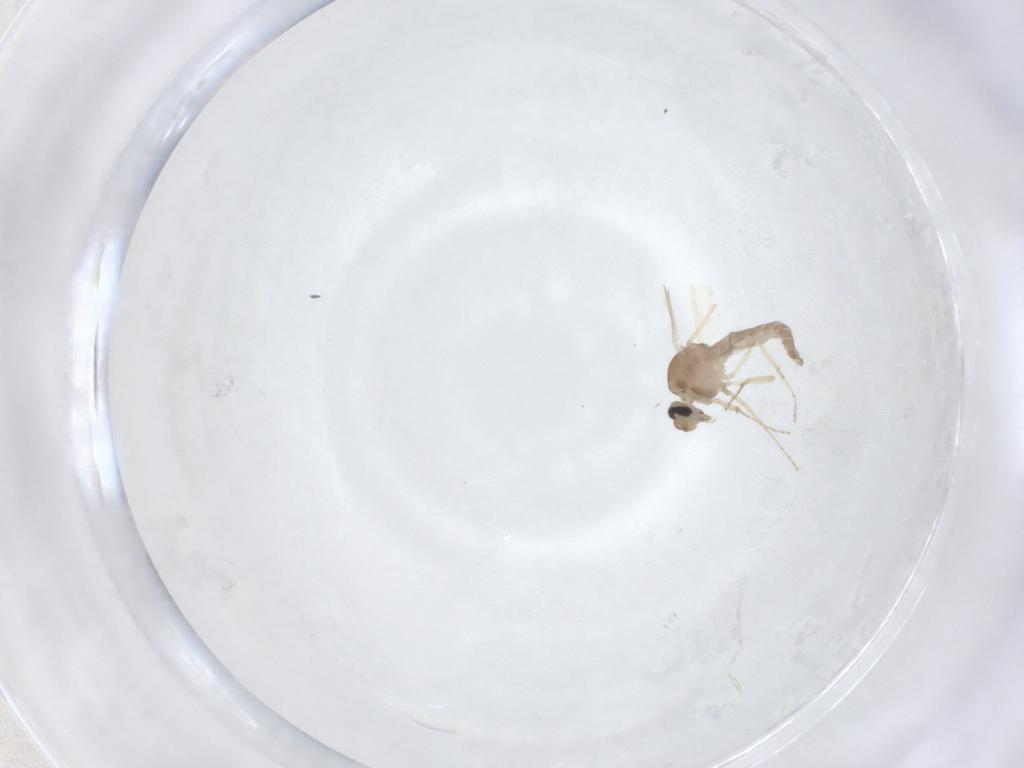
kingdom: Animalia
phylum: Arthropoda
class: Insecta
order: Diptera
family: Ceratopogonidae
